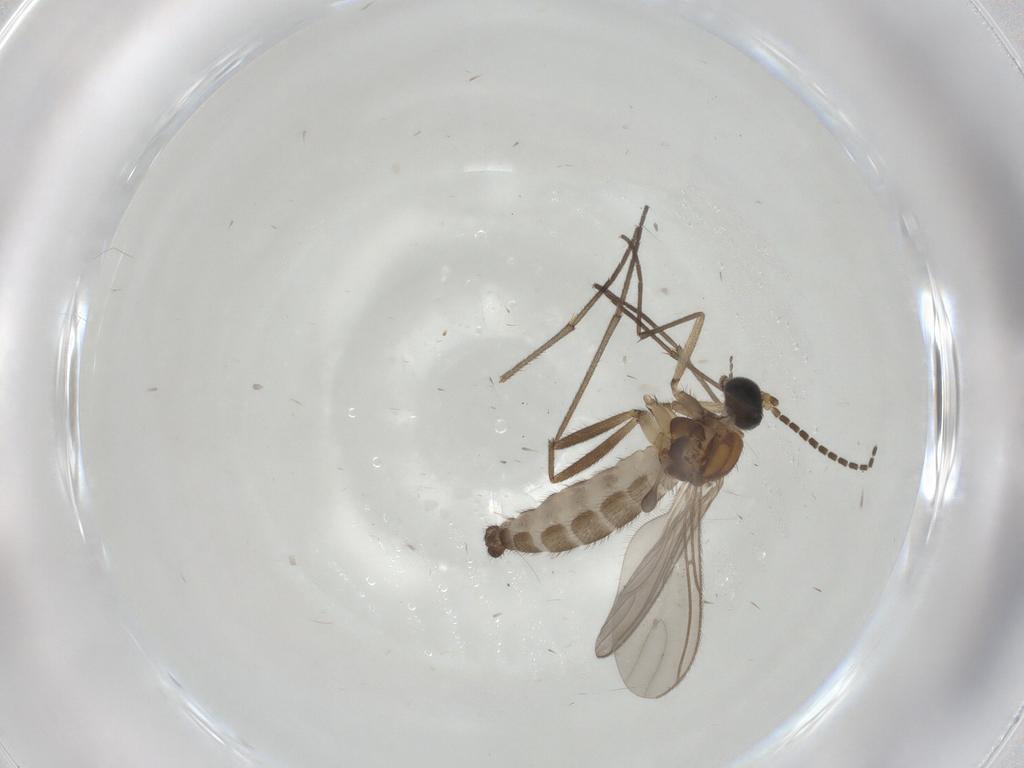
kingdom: Animalia
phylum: Arthropoda
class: Insecta
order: Diptera
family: Sciaridae
